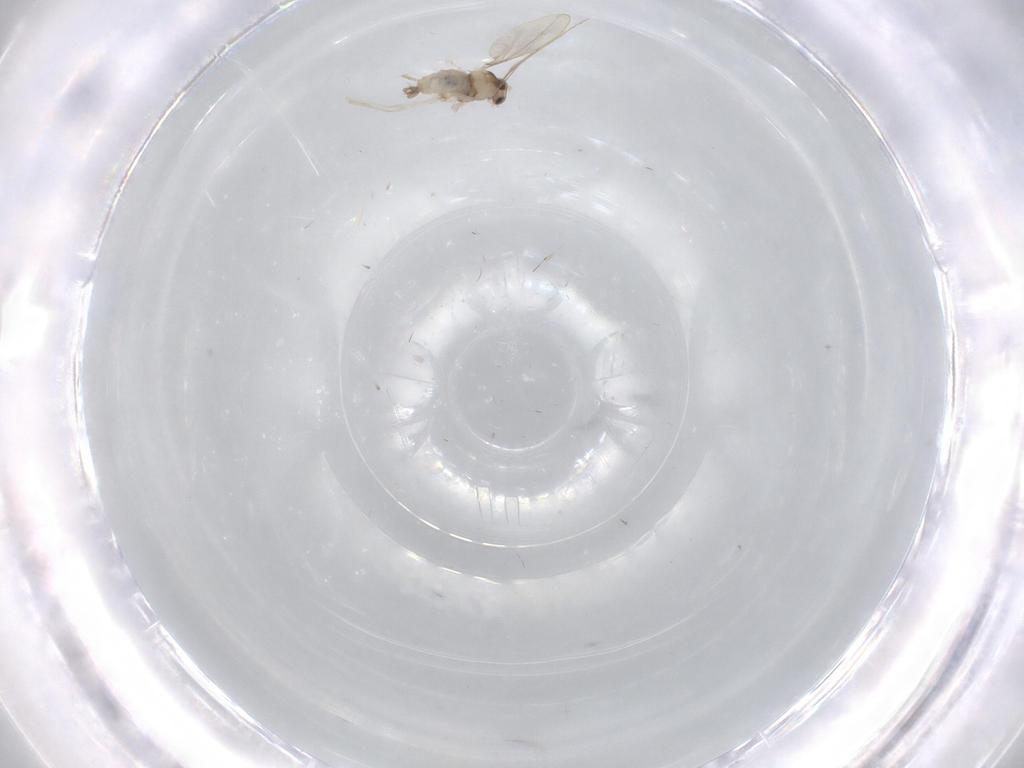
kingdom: Animalia
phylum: Arthropoda
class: Insecta
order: Diptera
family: Cecidomyiidae
